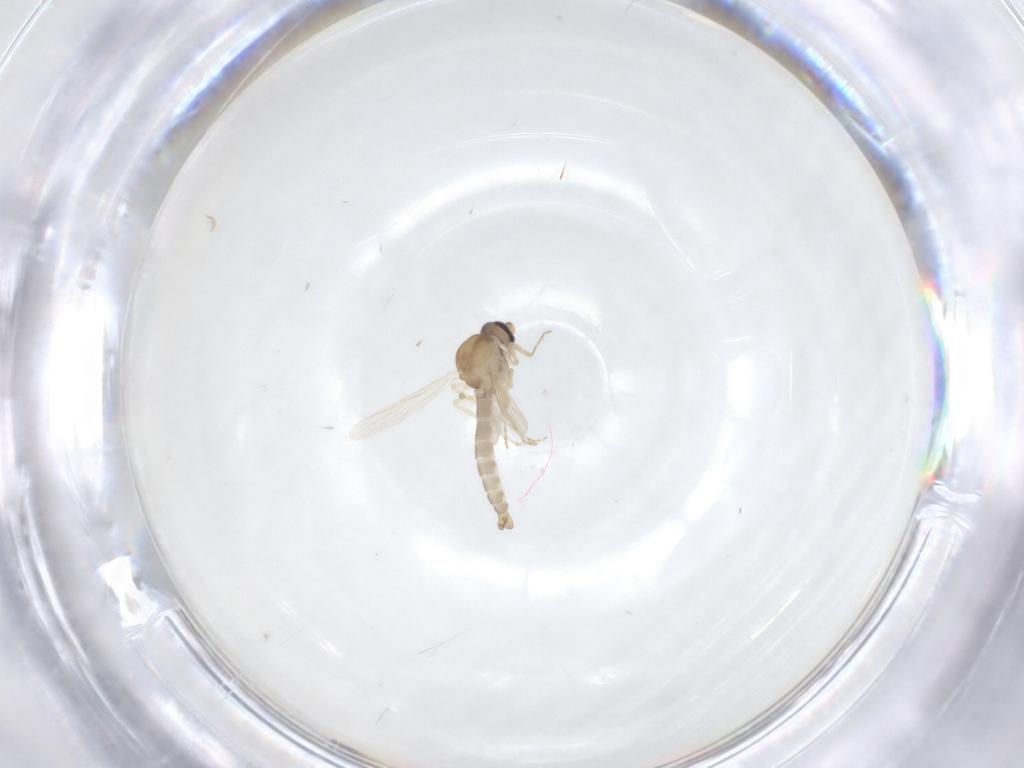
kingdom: Animalia
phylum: Arthropoda
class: Insecta
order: Diptera
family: Ceratopogonidae
